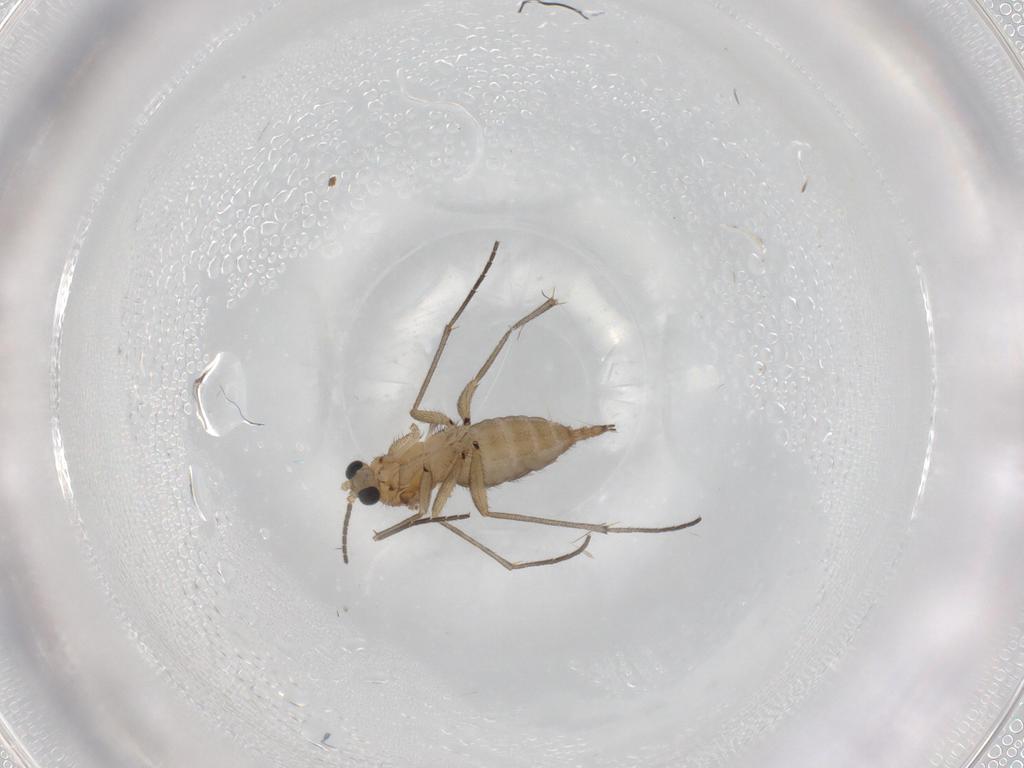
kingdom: Animalia
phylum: Arthropoda
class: Insecta
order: Diptera
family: Sciaridae
